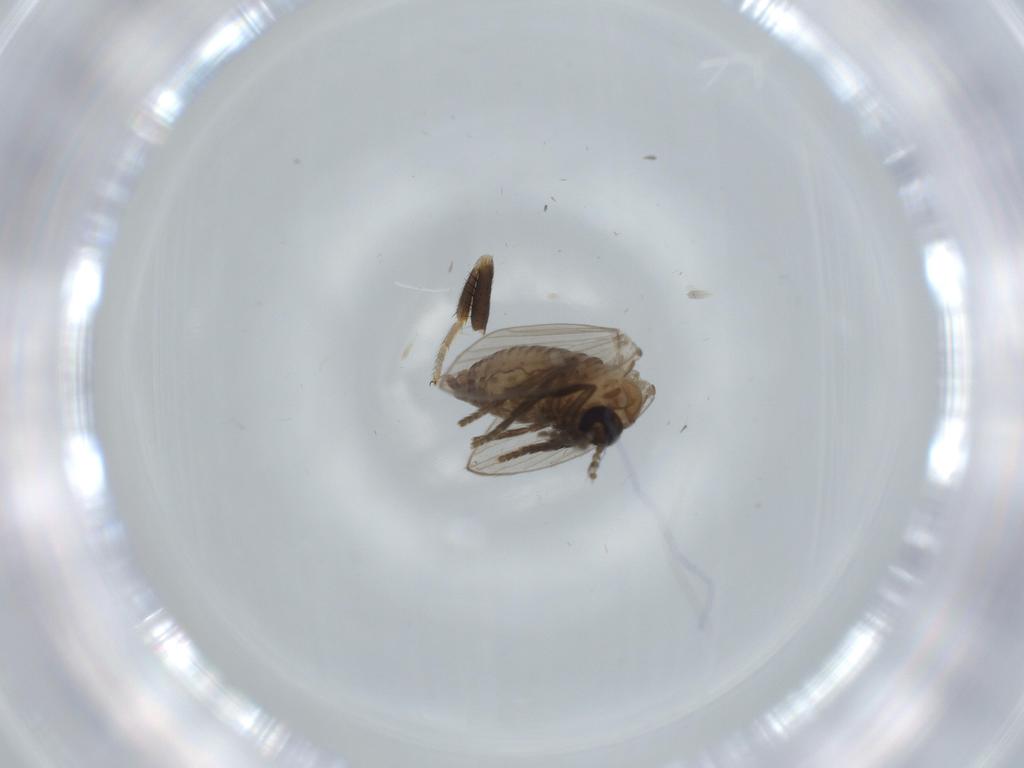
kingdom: Animalia
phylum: Arthropoda
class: Insecta
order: Diptera
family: Psychodidae
